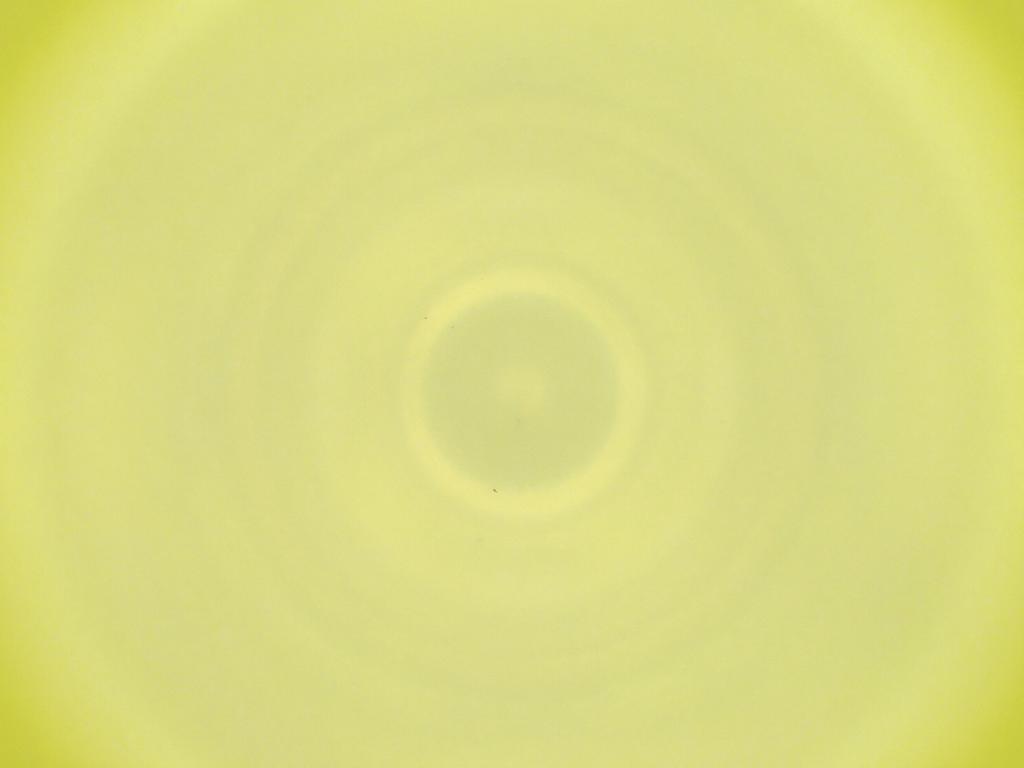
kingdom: Animalia
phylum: Arthropoda
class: Insecta
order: Diptera
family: Cecidomyiidae
